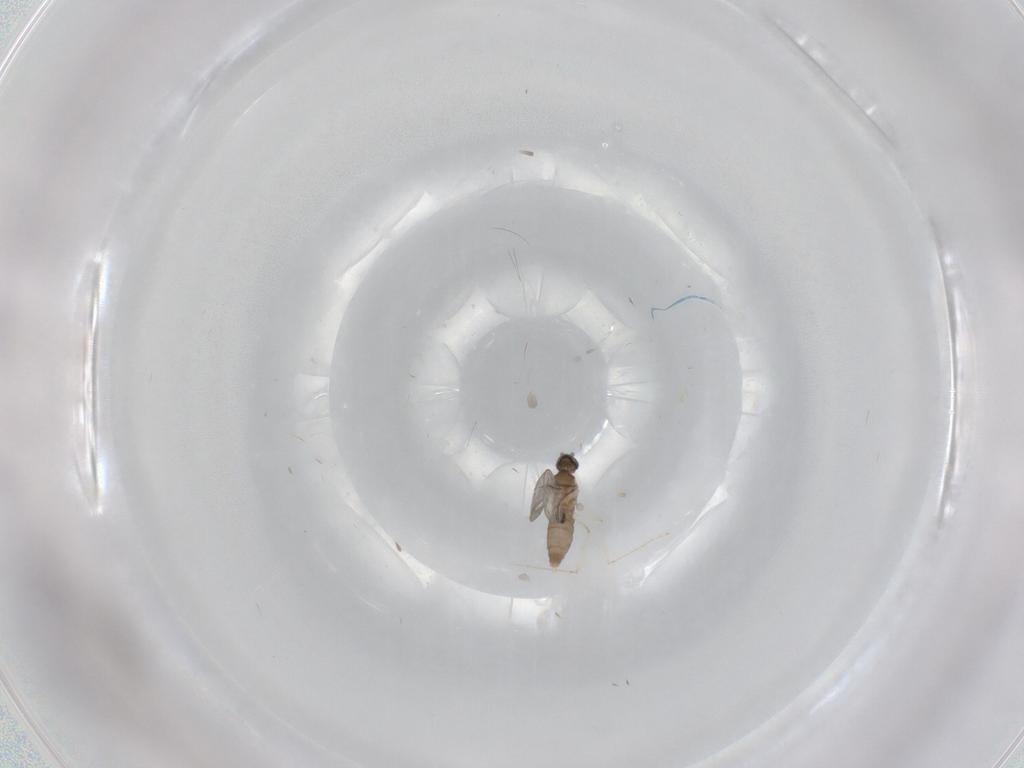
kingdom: Animalia
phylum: Arthropoda
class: Insecta
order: Diptera
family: Cecidomyiidae
